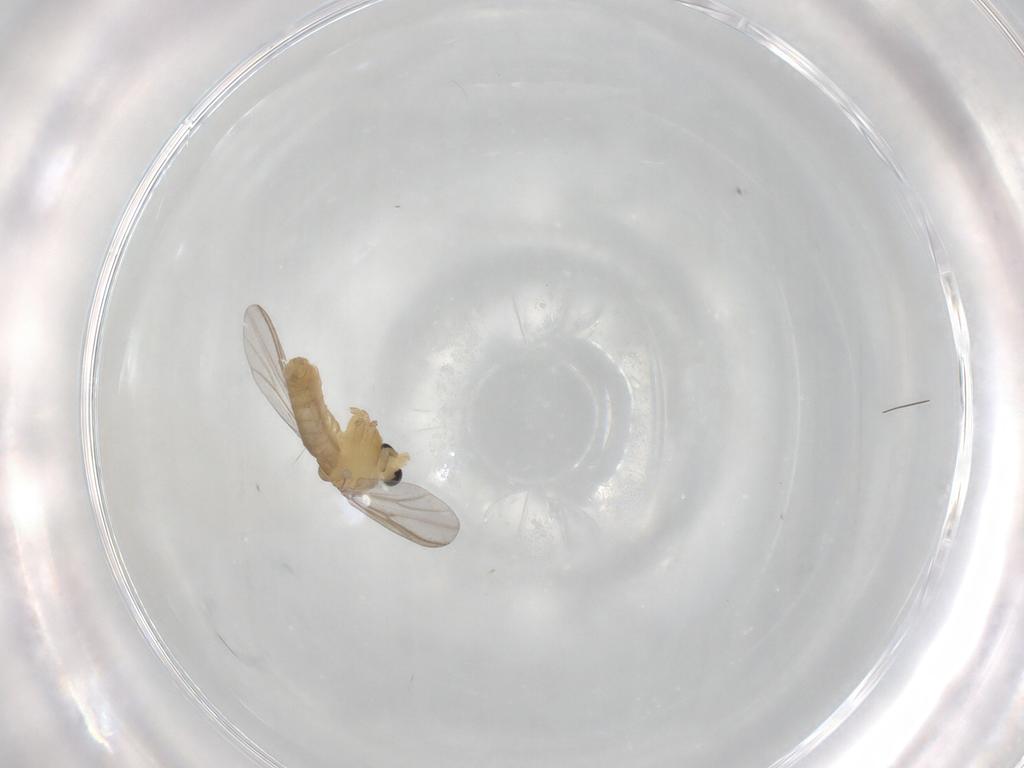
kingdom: Animalia
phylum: Arthropoda
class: Insecta
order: Diptera
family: Chironomidae
